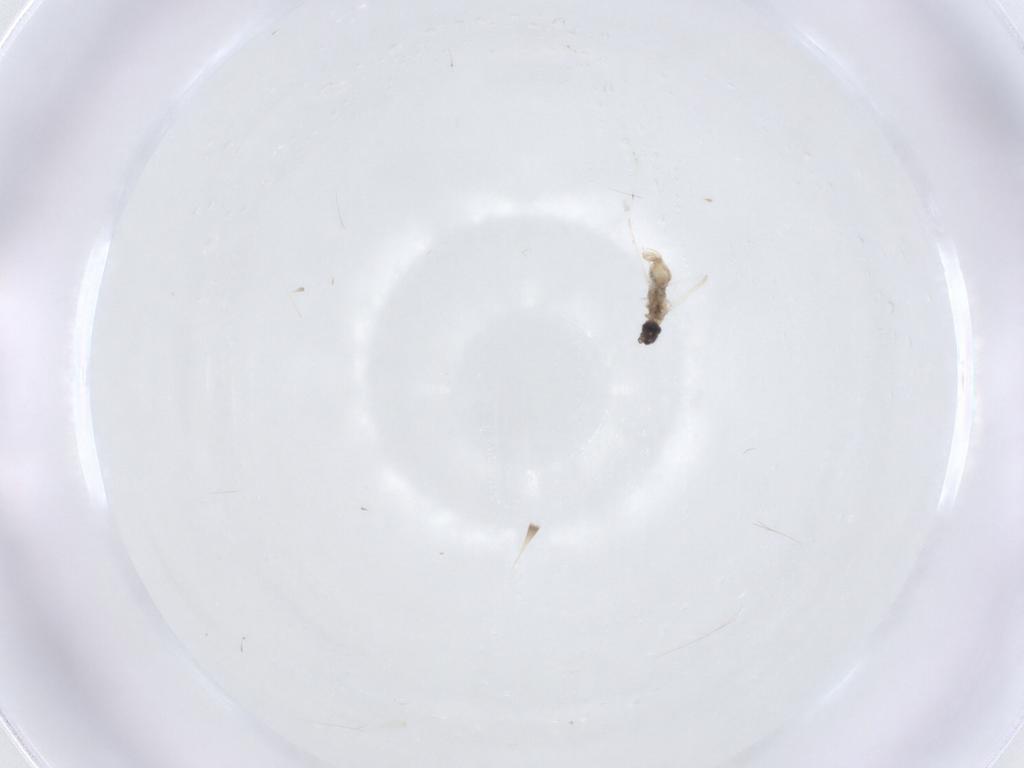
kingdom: Animalia
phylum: Arthropoda
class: Insecta
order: Diptera
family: Cecidomyiidae
